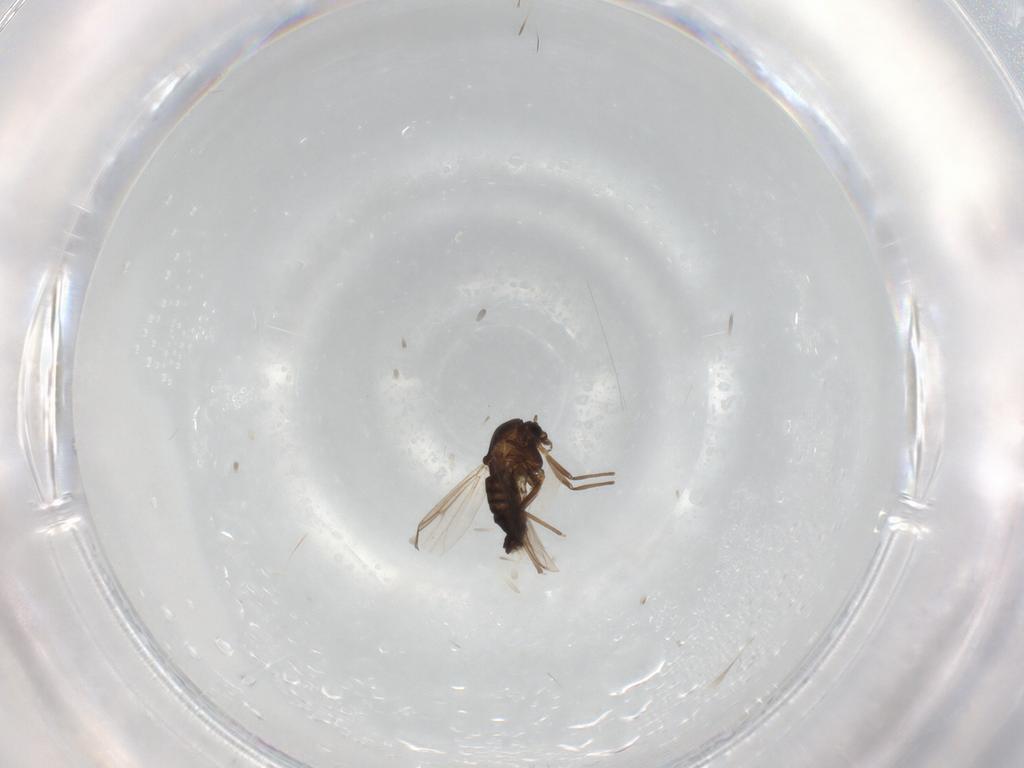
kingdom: Animalia
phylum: Arthropoda
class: Insecta
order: Diptera
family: Chironomidae
